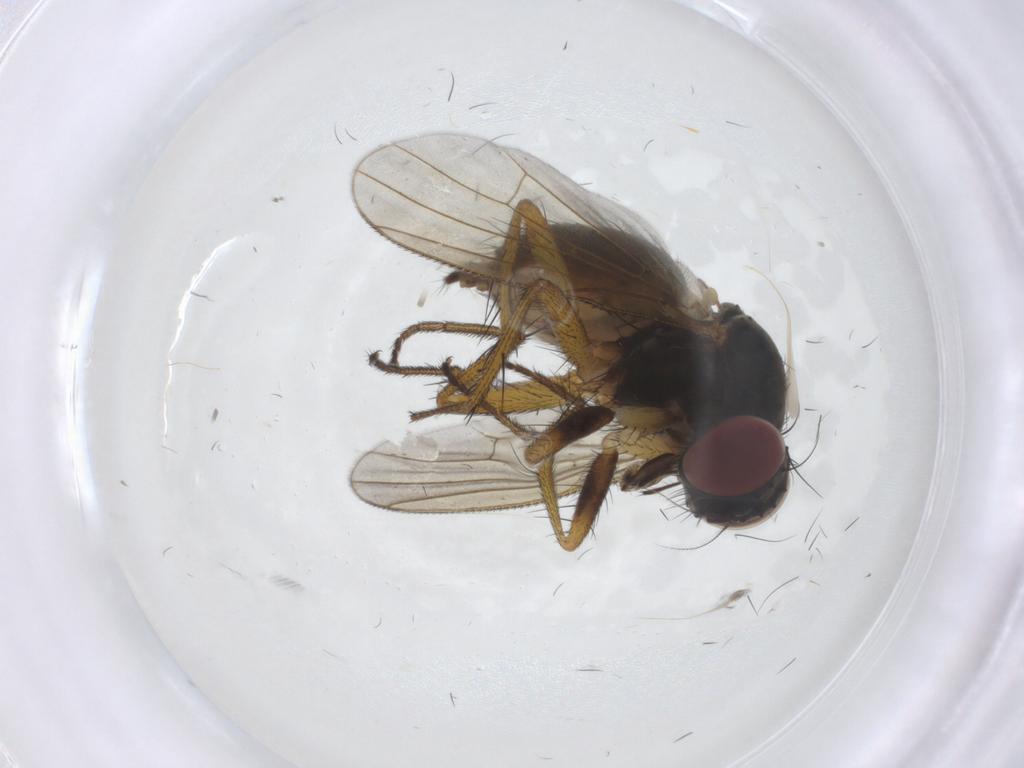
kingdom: Animalia
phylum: Arthropoda
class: Insecta
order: Diptera
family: Muscidae
